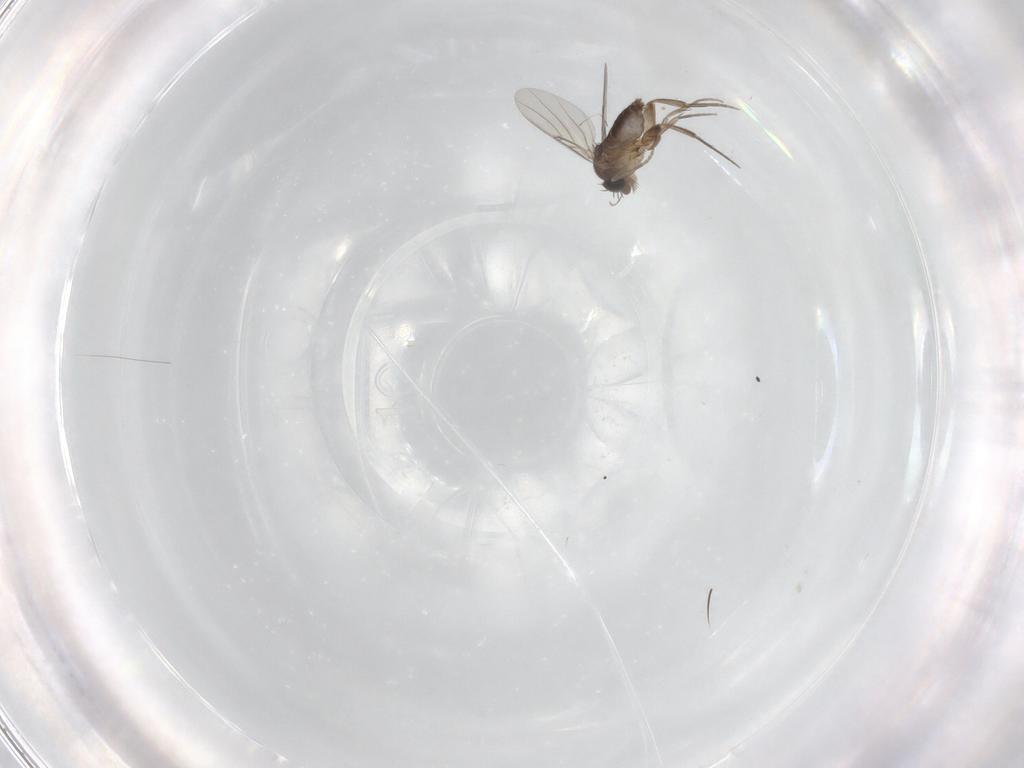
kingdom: Animalia
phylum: Arthropoda
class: Insecta
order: Diptera
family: Phoridae
